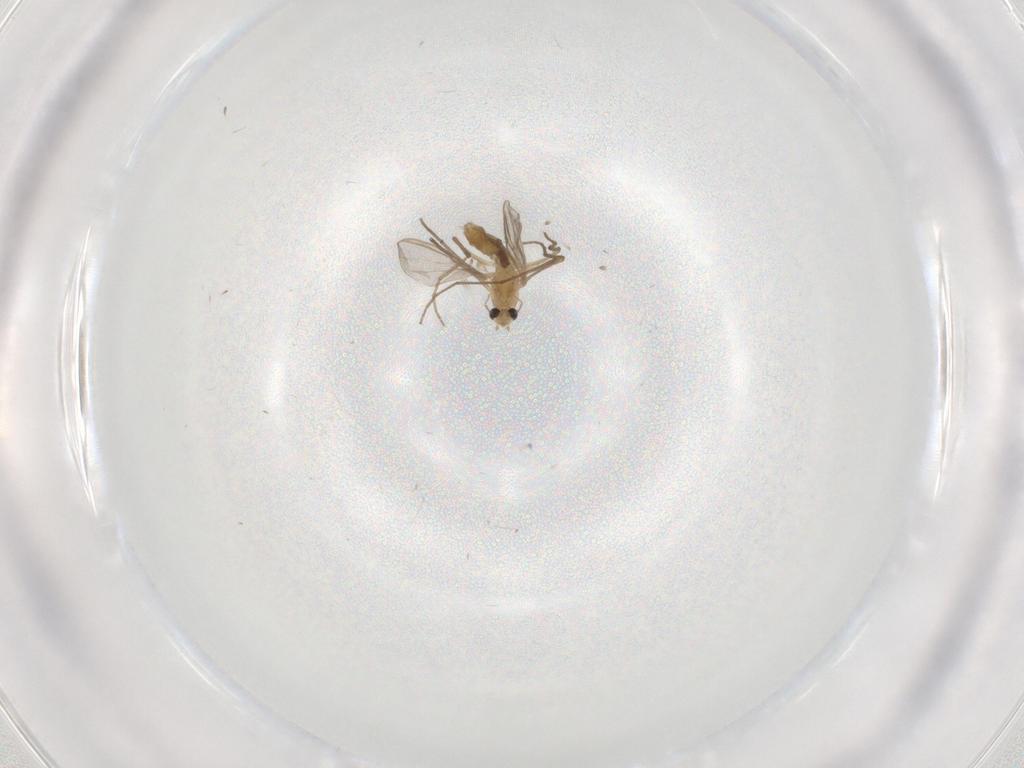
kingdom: Animalia
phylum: Arthropoda
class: Insecta
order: Diptera
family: Chironomidae
